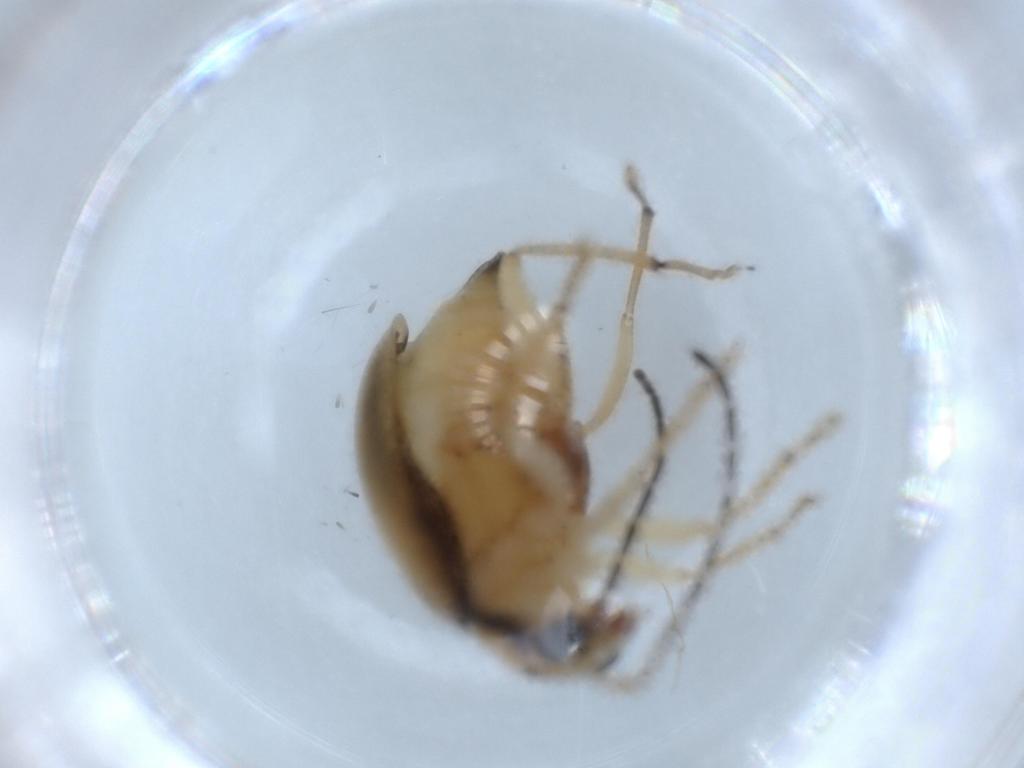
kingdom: Animalia
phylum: Arthropoda
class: Insecta
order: Coleoptera
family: Chrysomelidae
